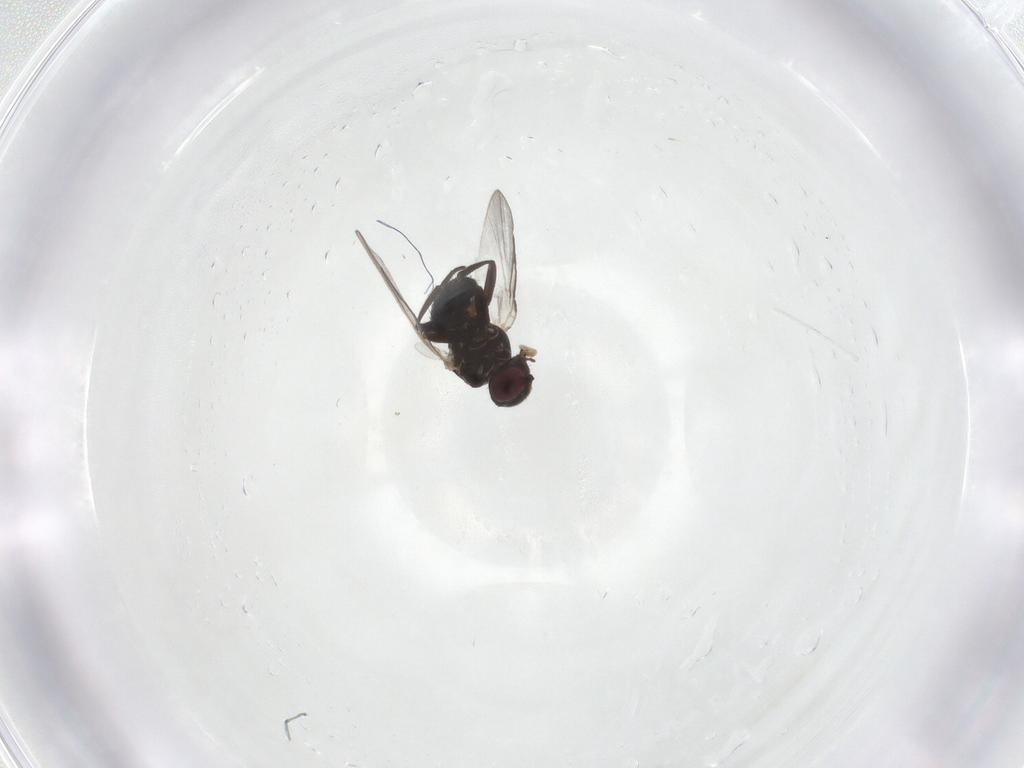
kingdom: Animalia
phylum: Arthropoda
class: Insecta
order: Diptera
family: Agromyzidae
